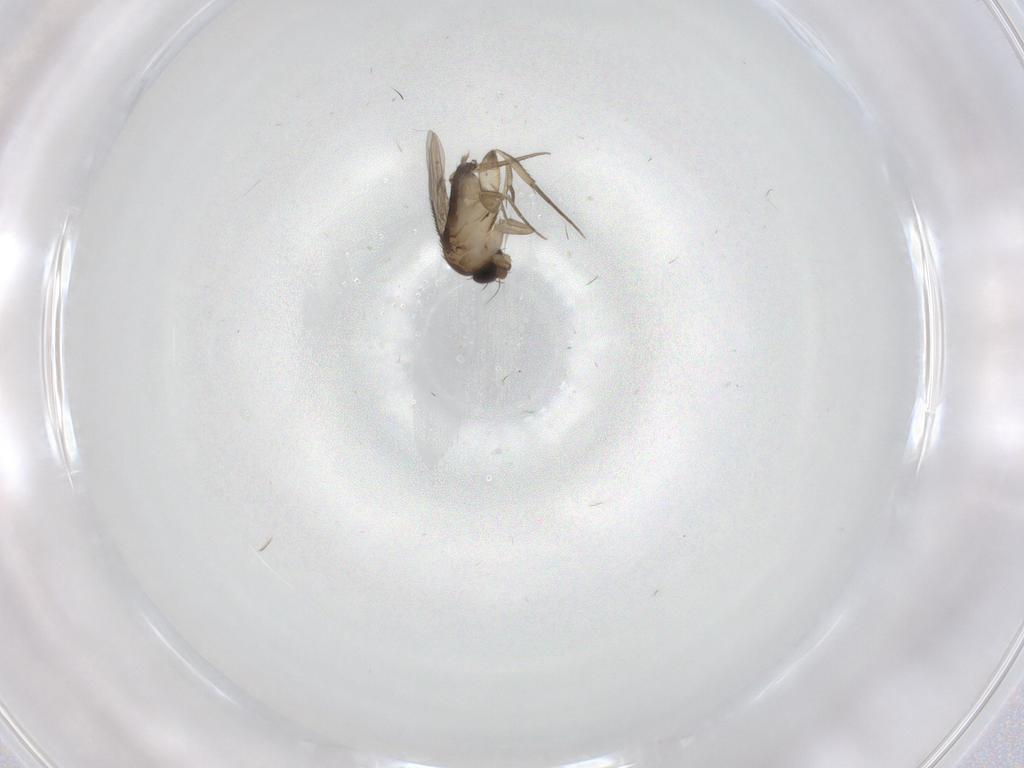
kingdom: Animalia
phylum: Arthropoda
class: Insecta
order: Diptera
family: Phoridae
